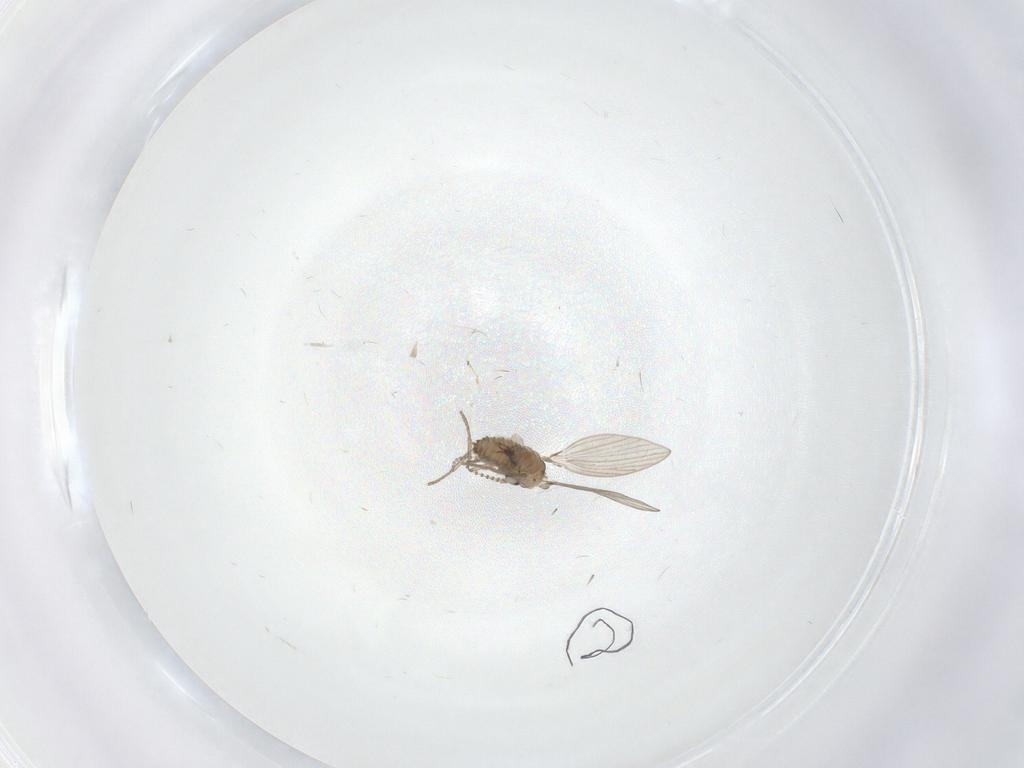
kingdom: Animalia
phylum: Arthropoda
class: Insecta
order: Diptera
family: Psychodidae
